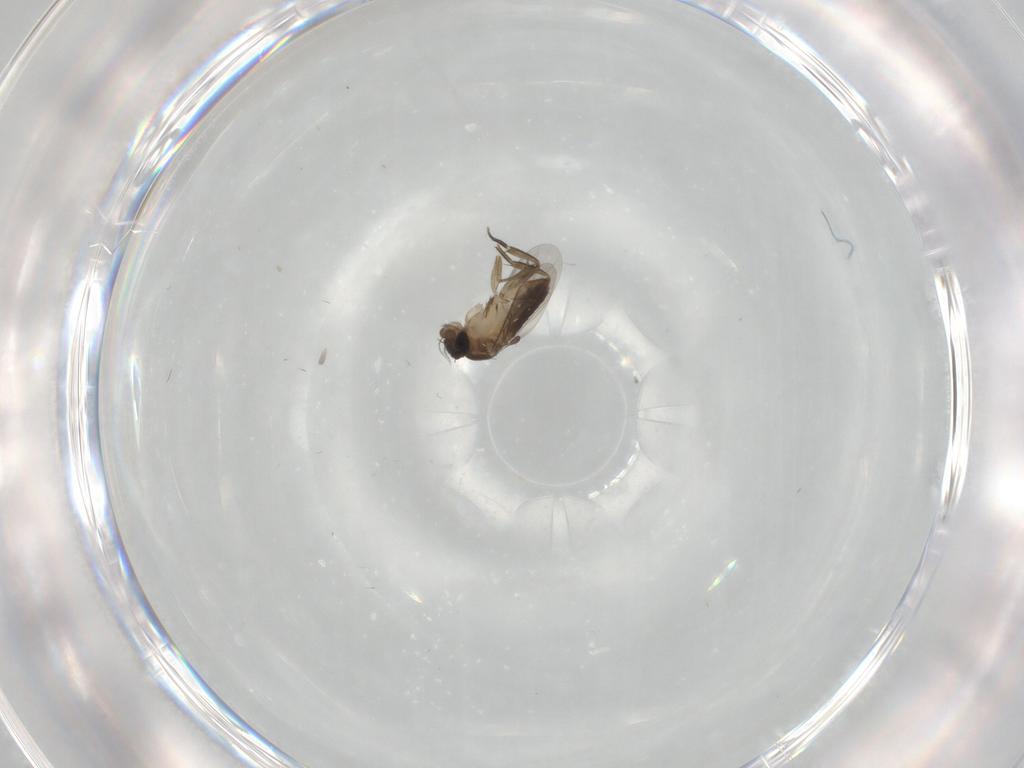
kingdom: Animalia
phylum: Arthropoda
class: Insecta
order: Diptera
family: Phoridae
